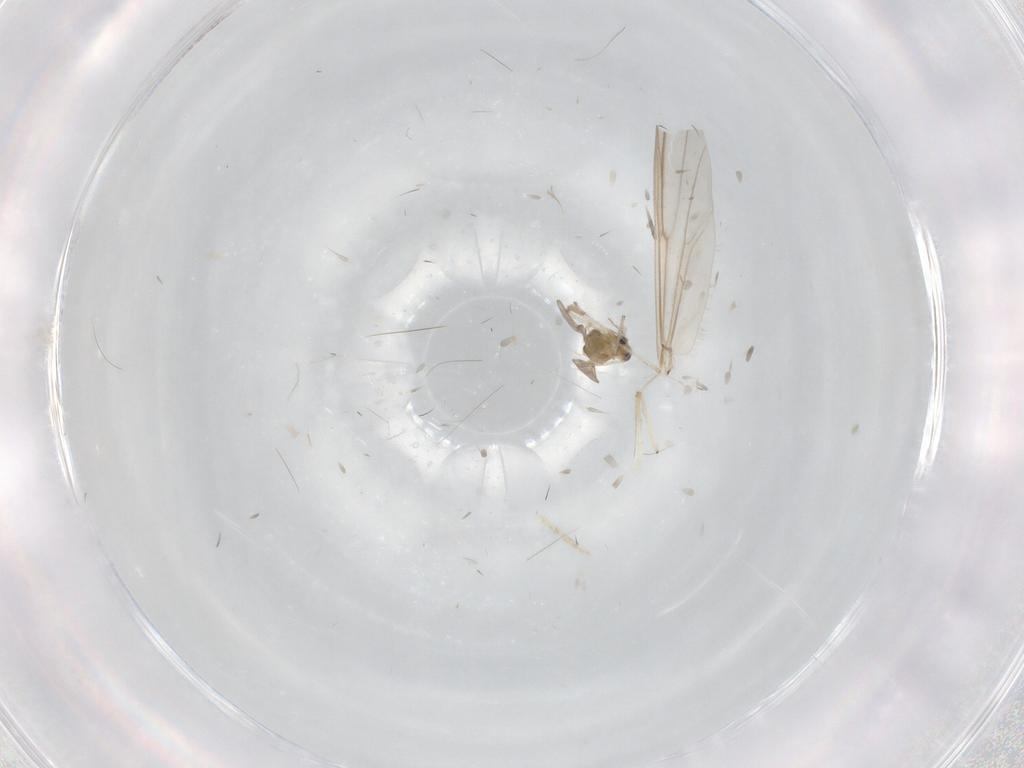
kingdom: Animalia
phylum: Arthropoda
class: Insecta
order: Diptera
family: Chironomidae
